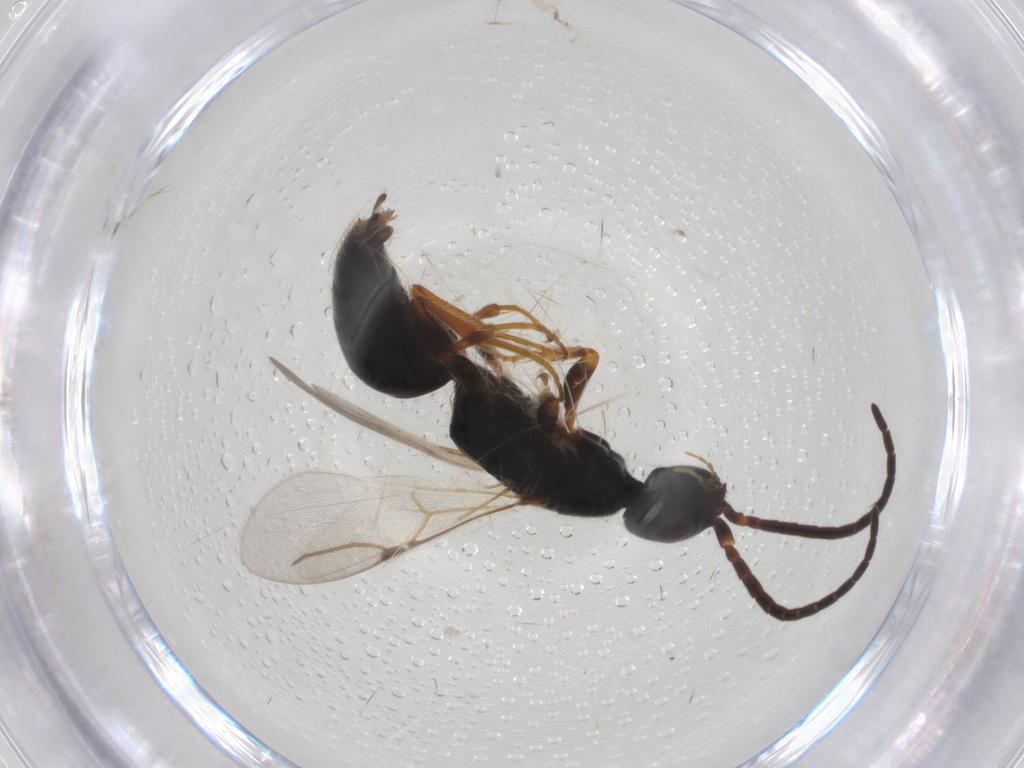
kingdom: Animalia
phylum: Arthropoda
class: Insecta
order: Hymenoptera
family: Bethylidae
